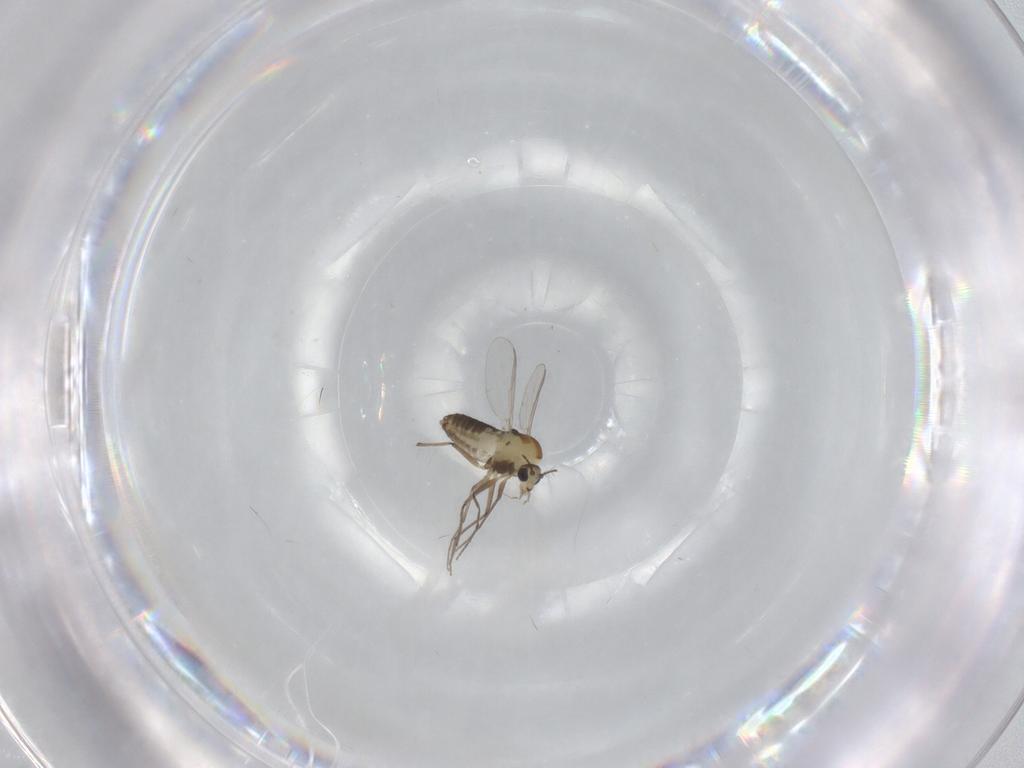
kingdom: Animalia
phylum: Arthropoda
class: Insecta
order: Diptera
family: Chironomidae
